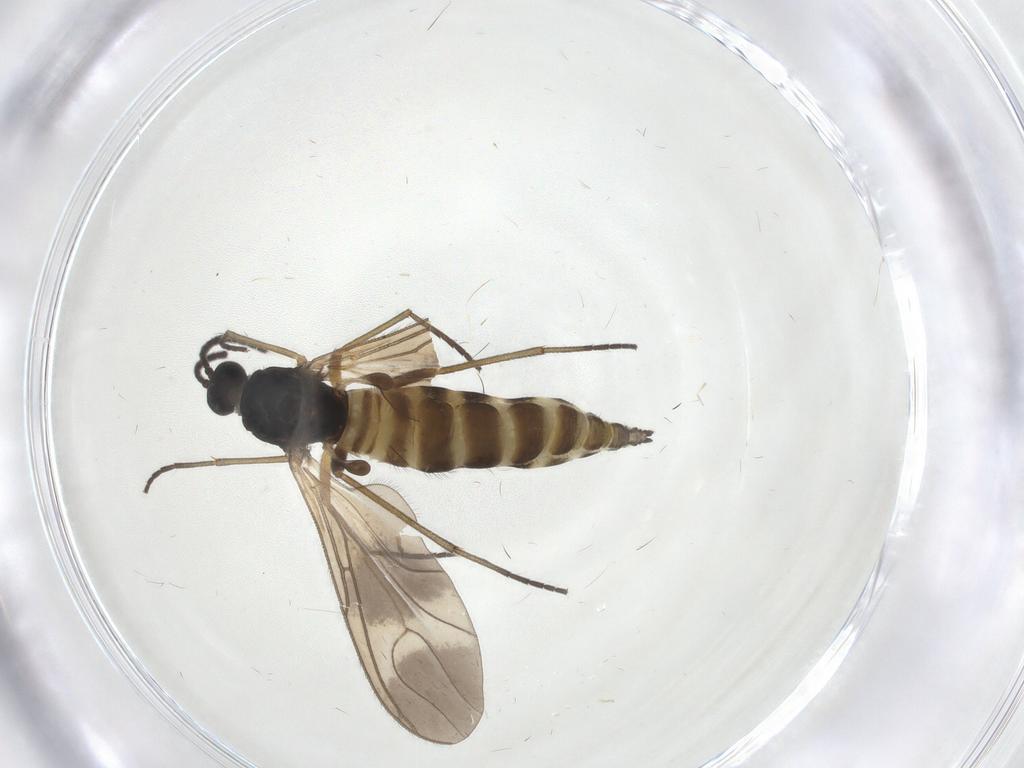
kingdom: Animalia
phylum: Arthropoda
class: Insecta
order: Diptera
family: Sciaridae
